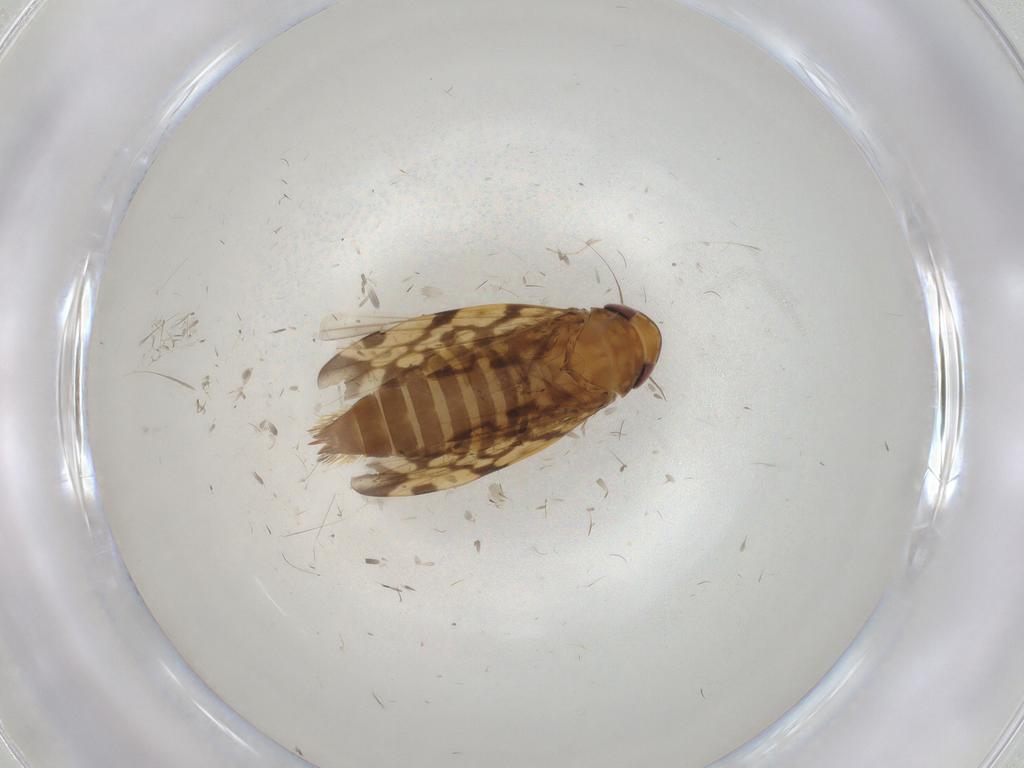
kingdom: Animalia
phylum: Arthropoda
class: Insecta
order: Hemiptera
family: Cicadellidae
